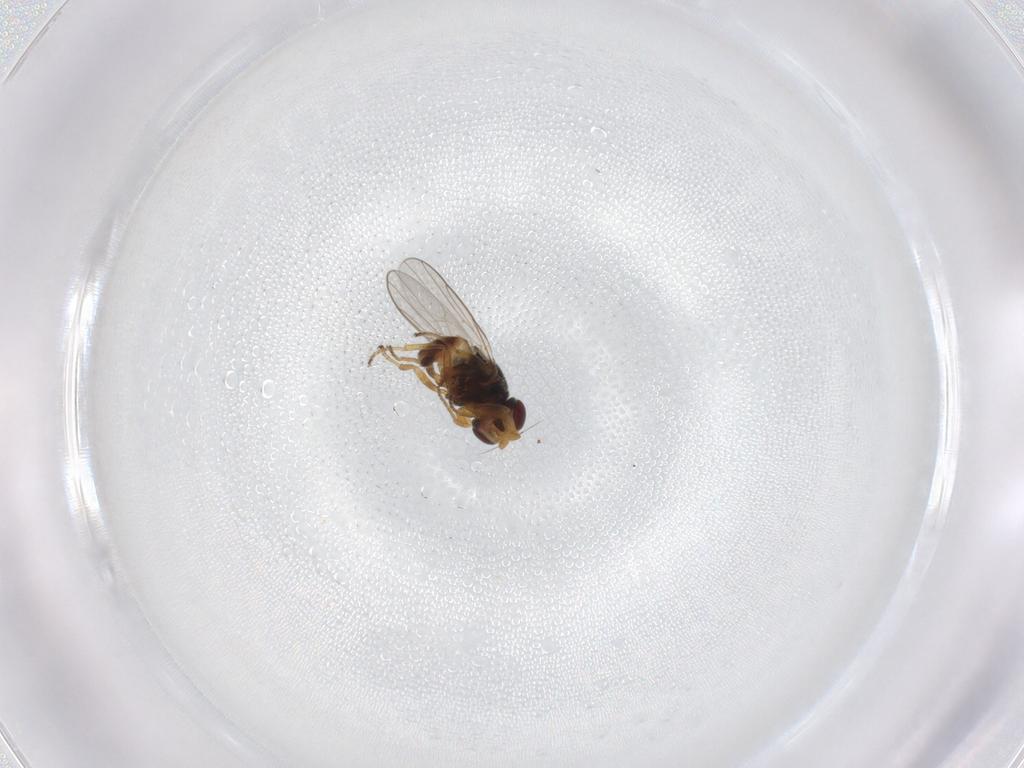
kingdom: Animalia
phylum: Arthropoda
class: Insecta
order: Diptera
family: Chloropidae
